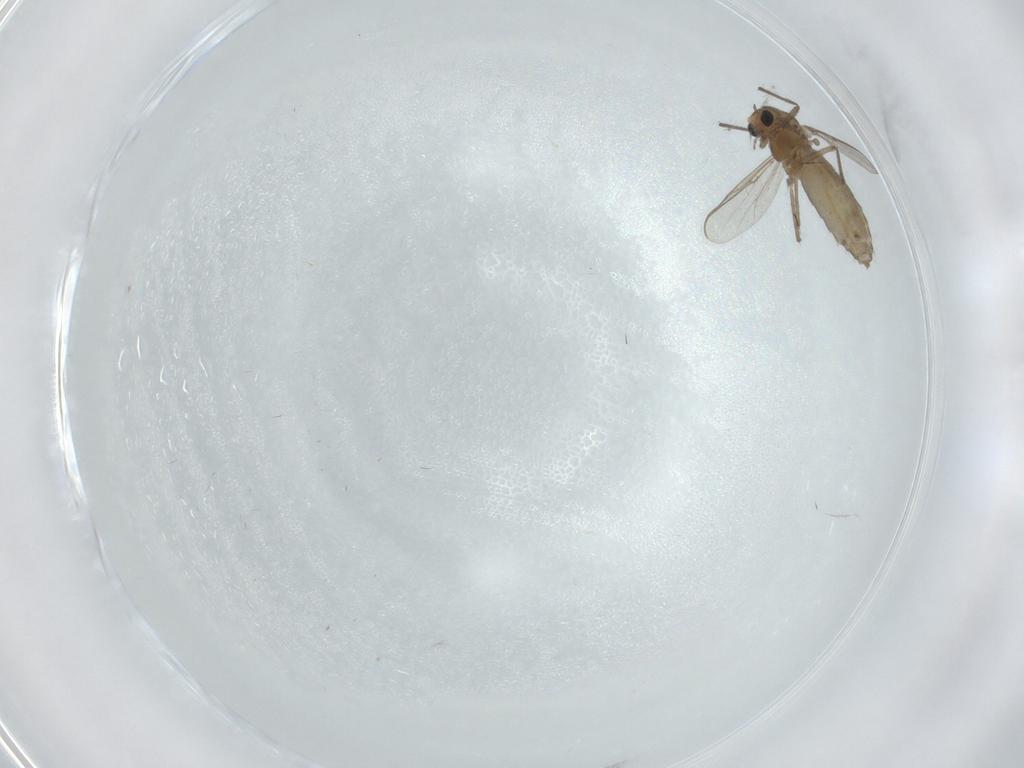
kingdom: Animalia
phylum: Arthropoda
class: Insecta
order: Diptera
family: Chironomidae
